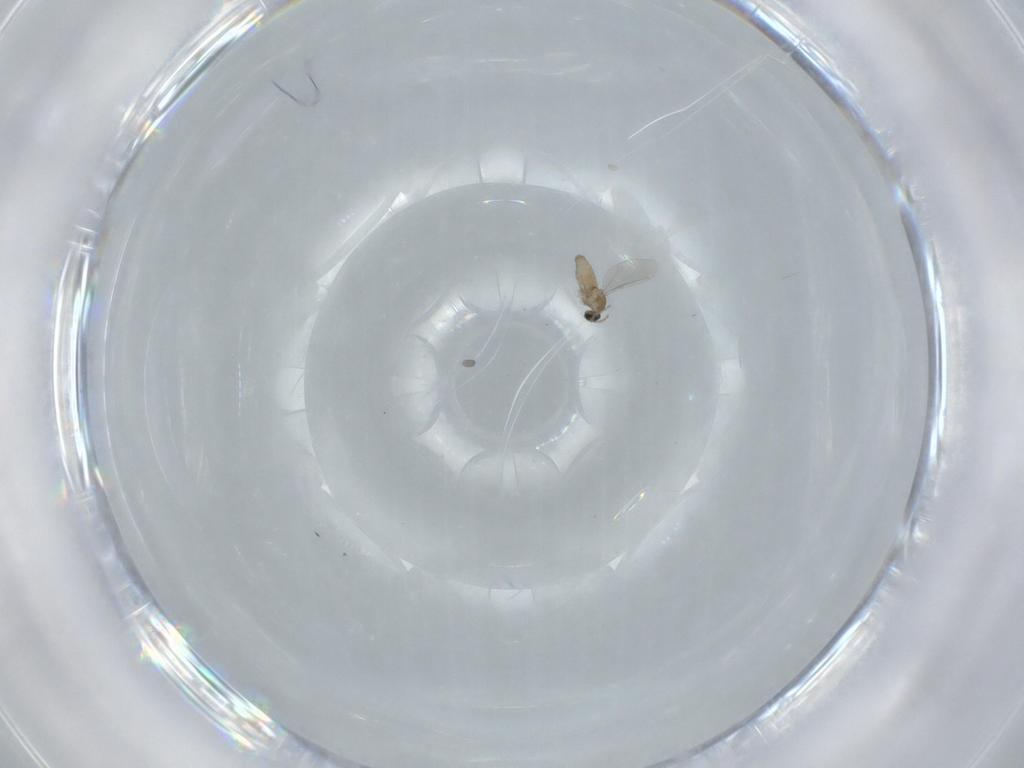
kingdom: Animalia
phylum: Arthropoda
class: Insecta
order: Diptera
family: Cecidomyiidae
